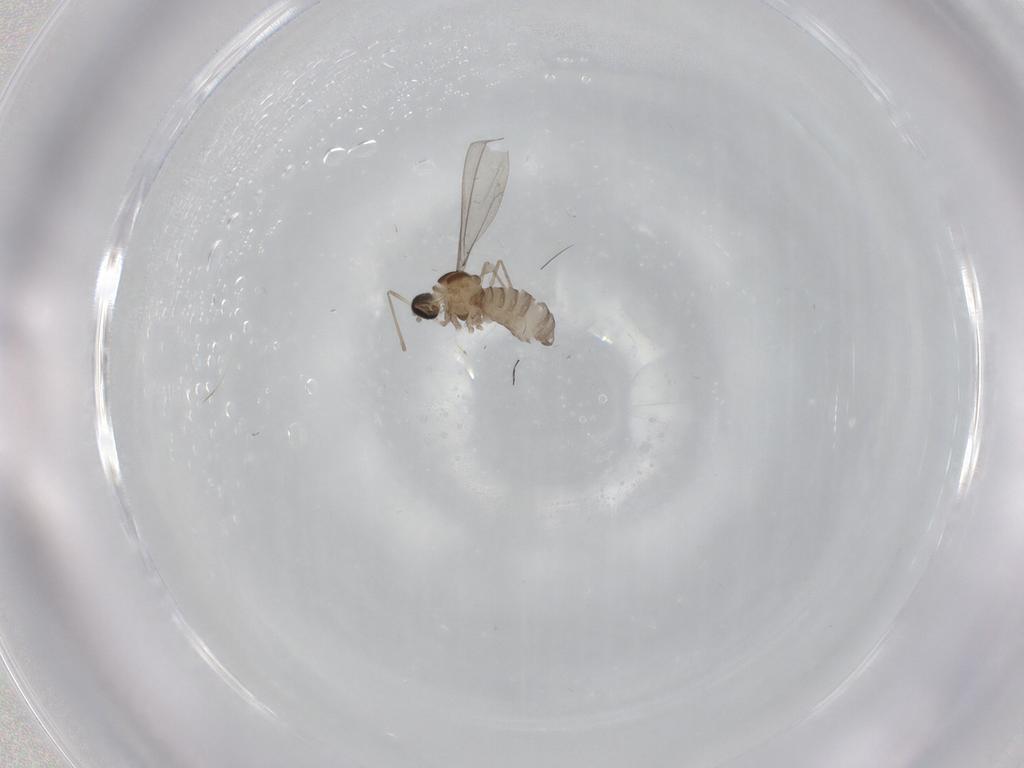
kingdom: Animalia
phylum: Arthropoda
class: Insecta
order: Diptera
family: Cecidomyiidae
